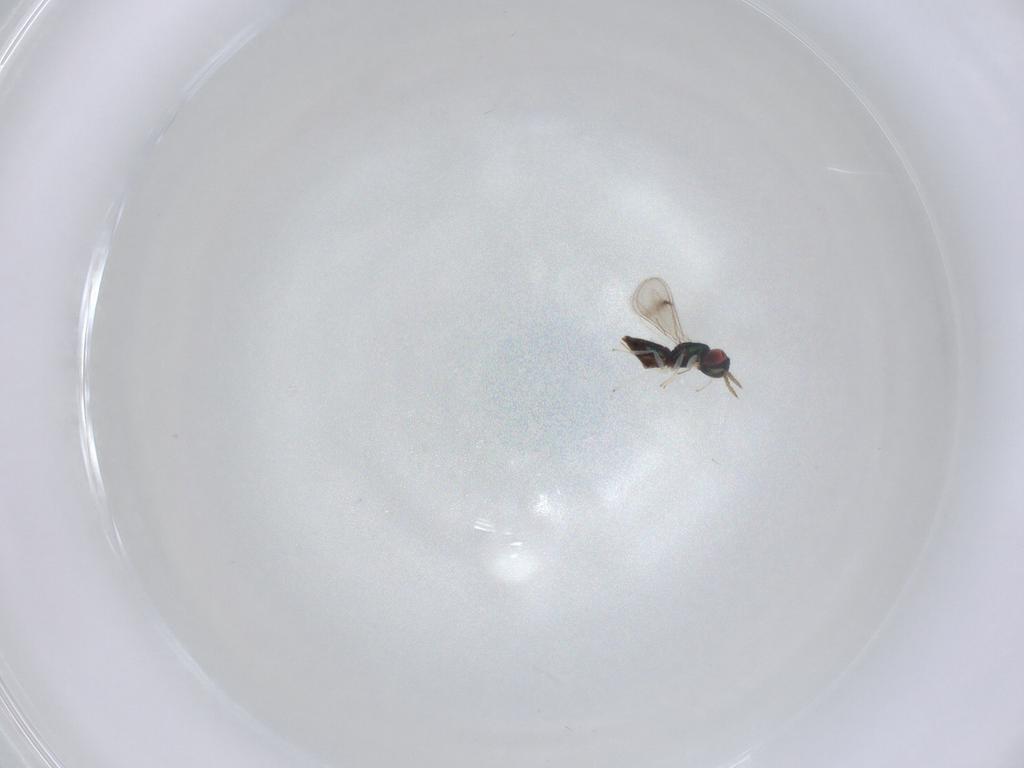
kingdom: Animalia
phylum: Arthropoda
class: Insecta
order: Hymenoptera
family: Eulophidae
